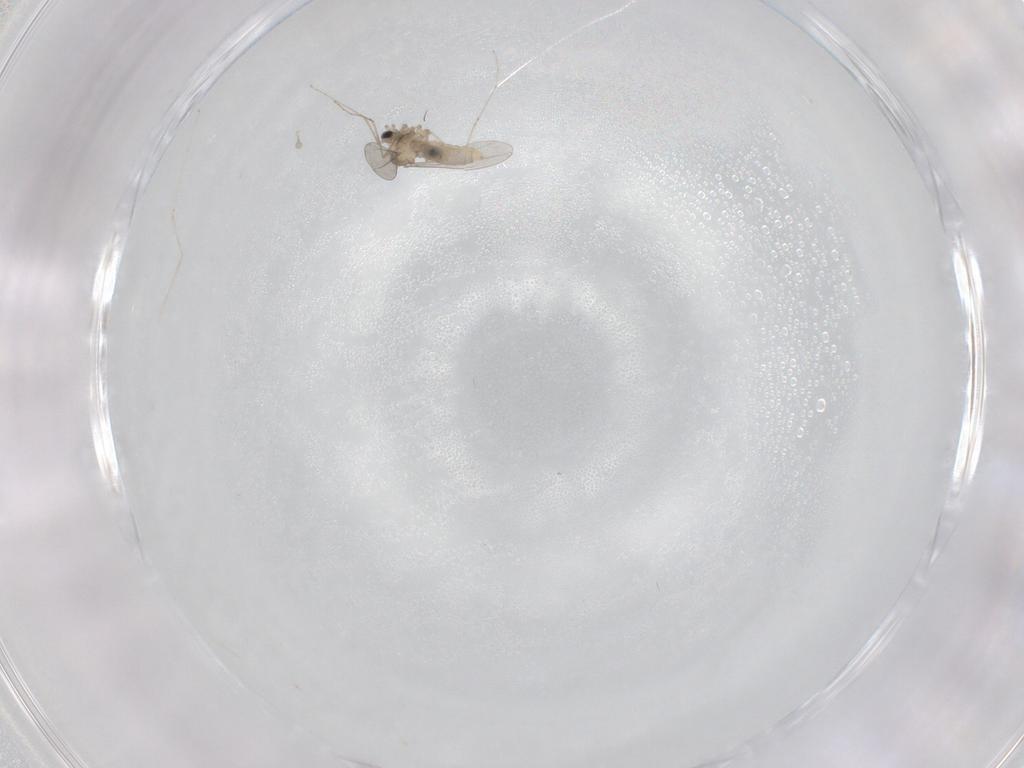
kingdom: Animalia
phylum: Arthropoda
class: Insecta
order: Diptera
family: Cecidomyiidae
